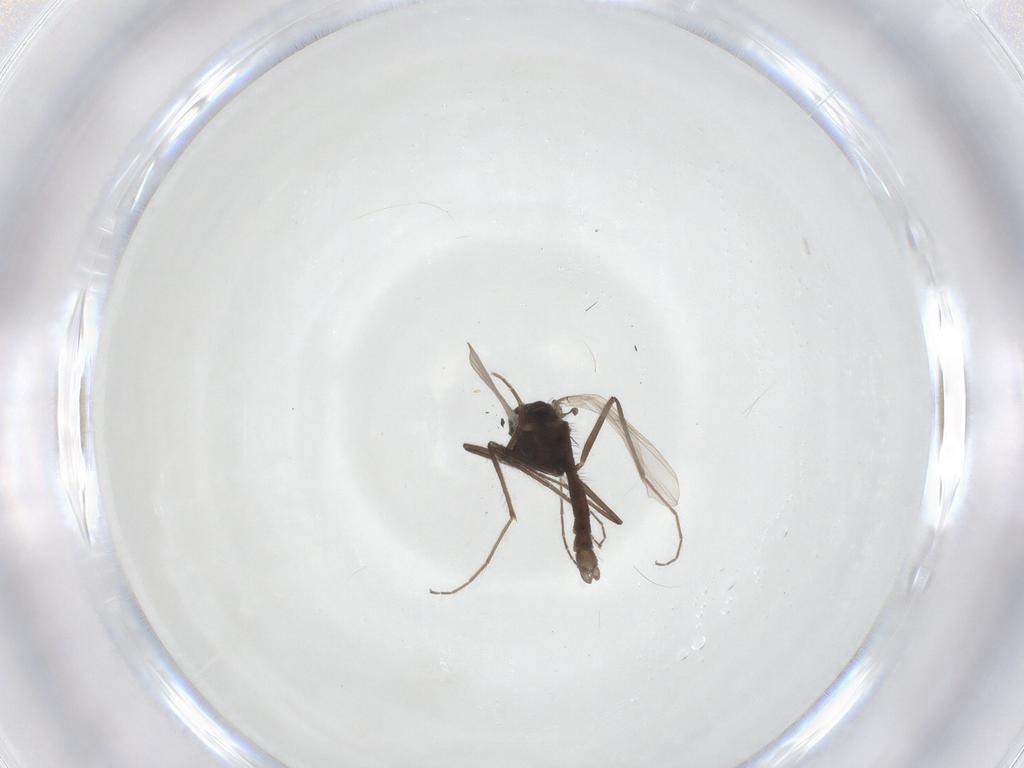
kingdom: Animalia
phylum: Arthropoda
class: Insecta
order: Diptera
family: Chironomidae
